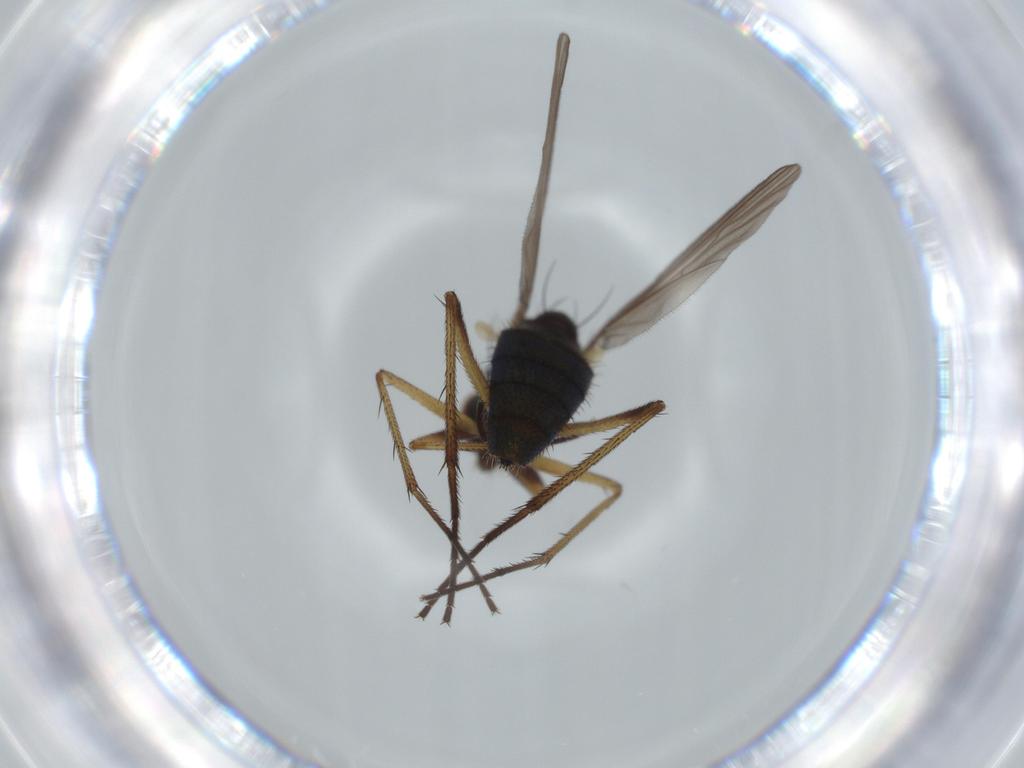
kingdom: Animalia
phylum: Arthropoda
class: Insecta
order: Diptera
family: Dolichopodidae
